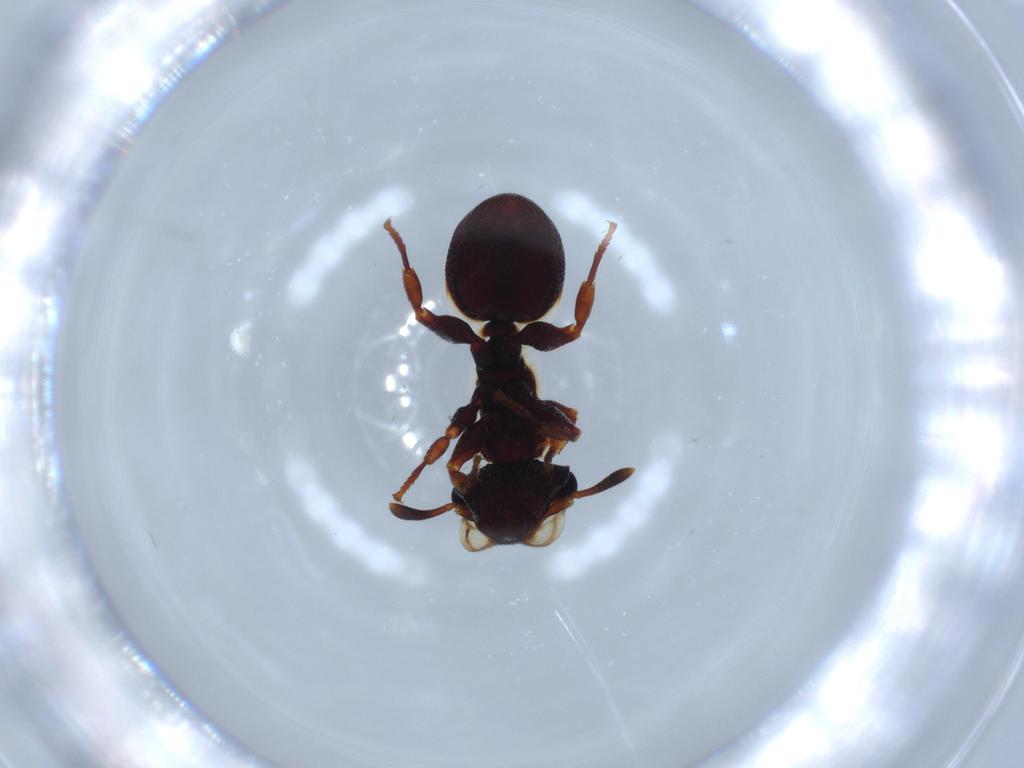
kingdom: Animalia
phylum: Arthropoda
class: Insecta
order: Hymenoptera
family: Formicidae
